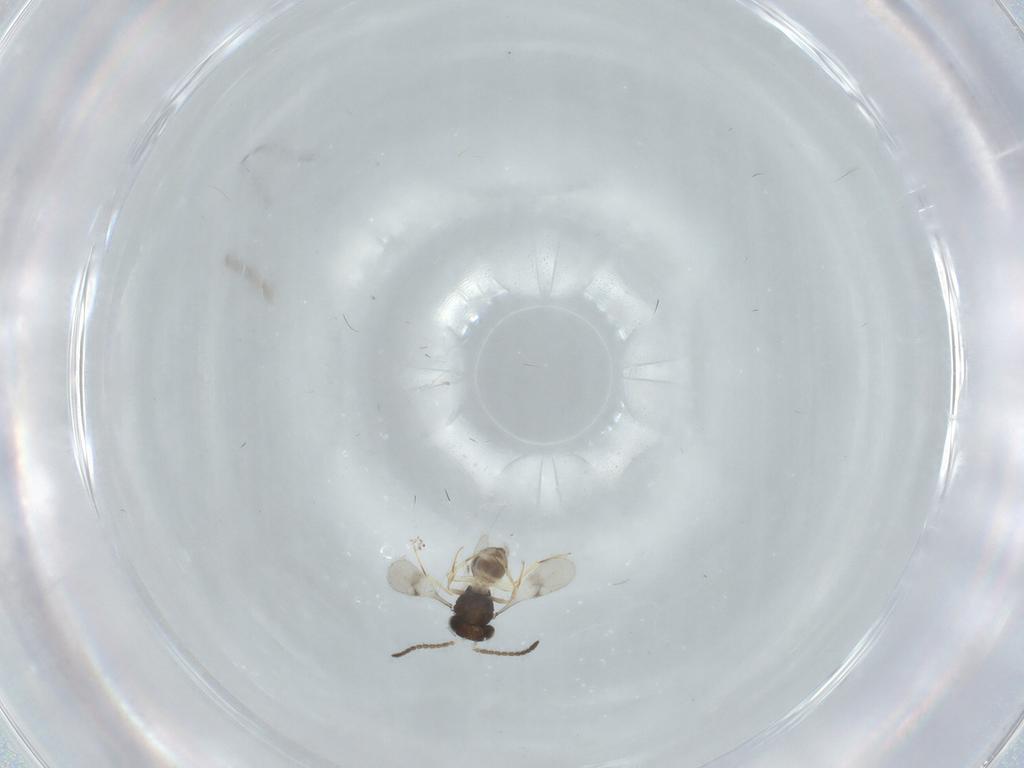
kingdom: Animalia
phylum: Arthropoda
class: Insecta
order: Hymenoptera
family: Scelionidae
